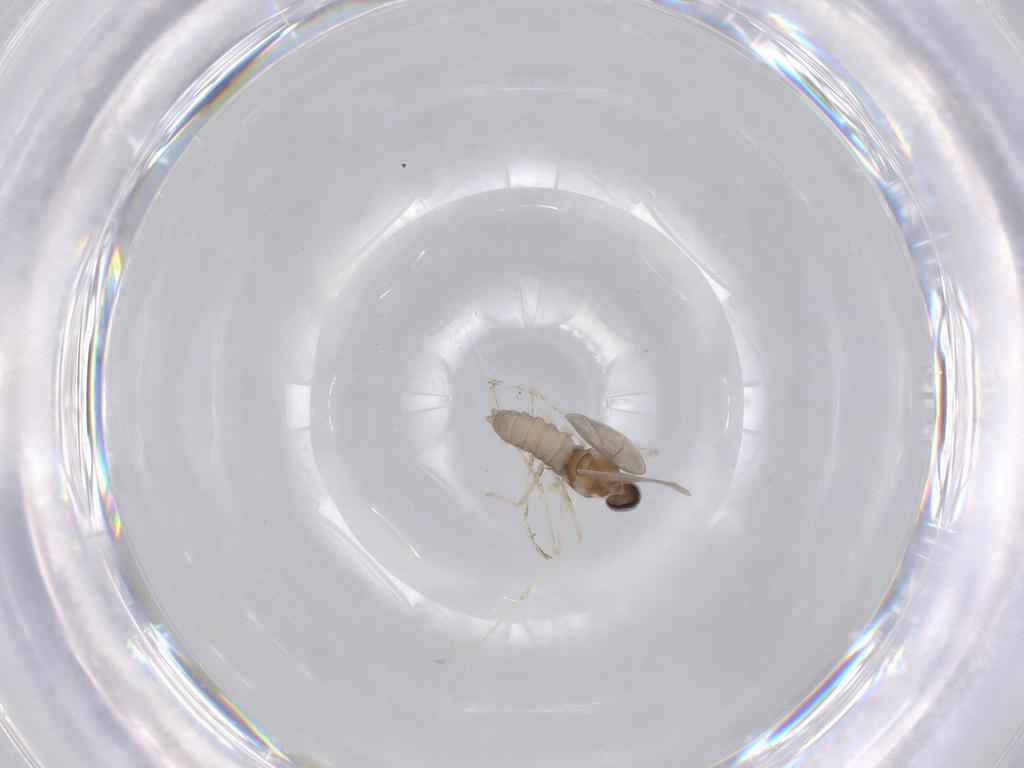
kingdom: Animalia
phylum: Arthropoda
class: Insecta
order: Diptera
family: Cecidomyiidae
